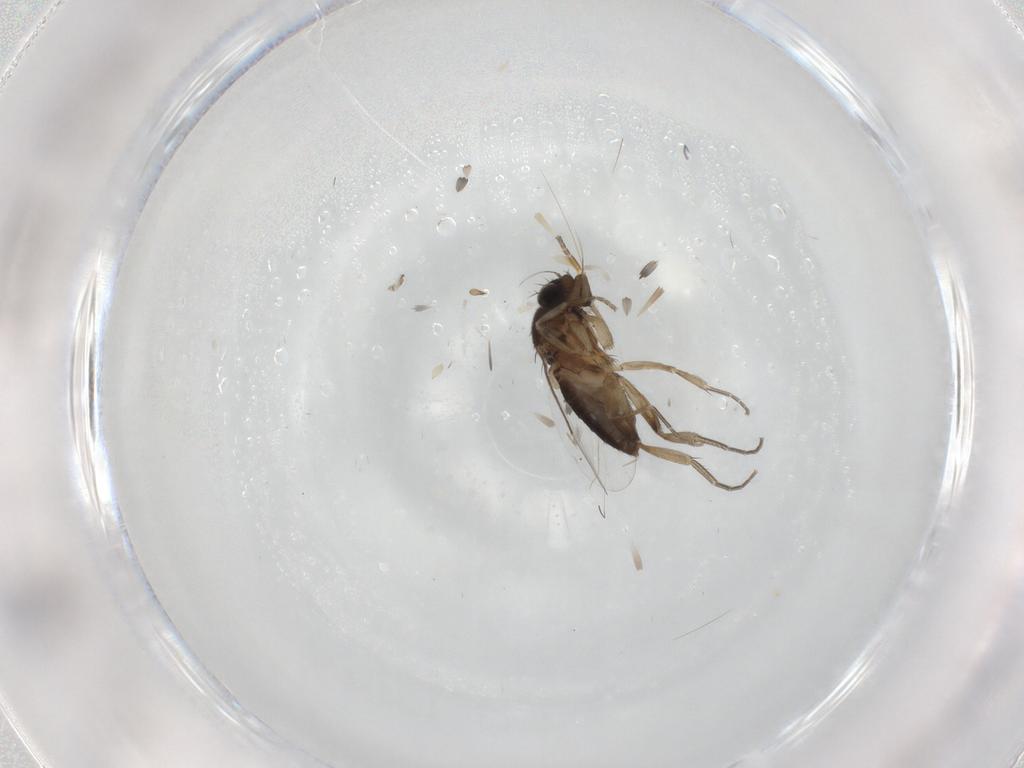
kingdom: Animalia
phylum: Arthropoda
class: Insecta
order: Diptera
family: Phoridae
